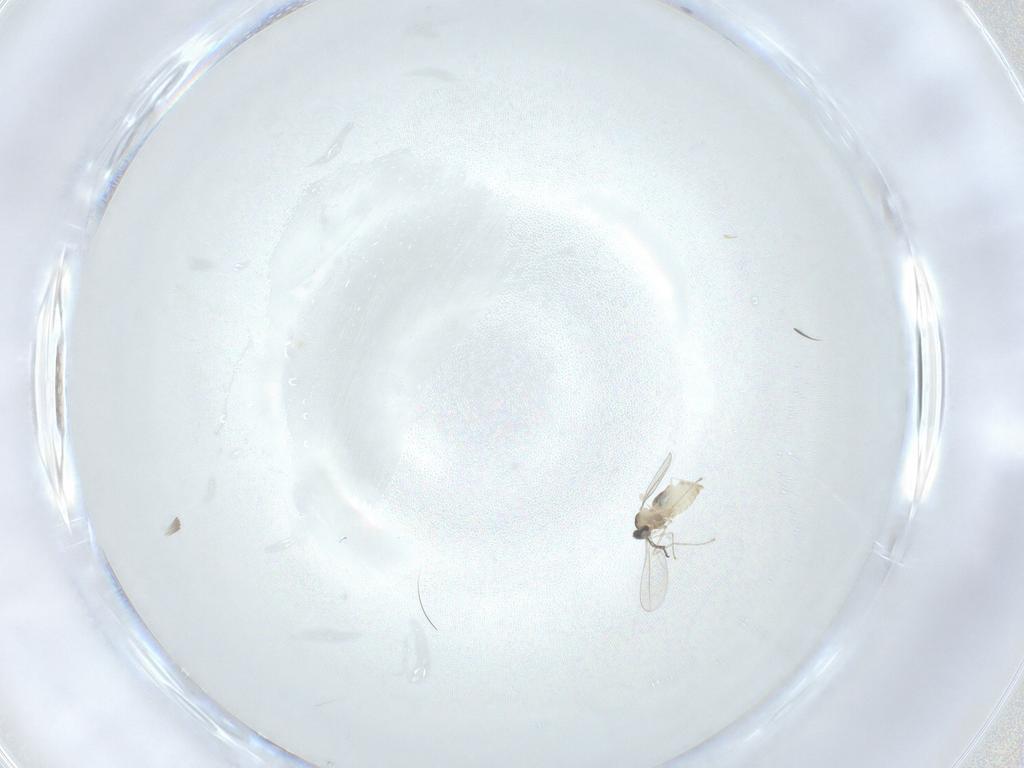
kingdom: Animalia
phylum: Arthropoda
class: Insecta
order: Diptera
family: Cecidomyiidae
